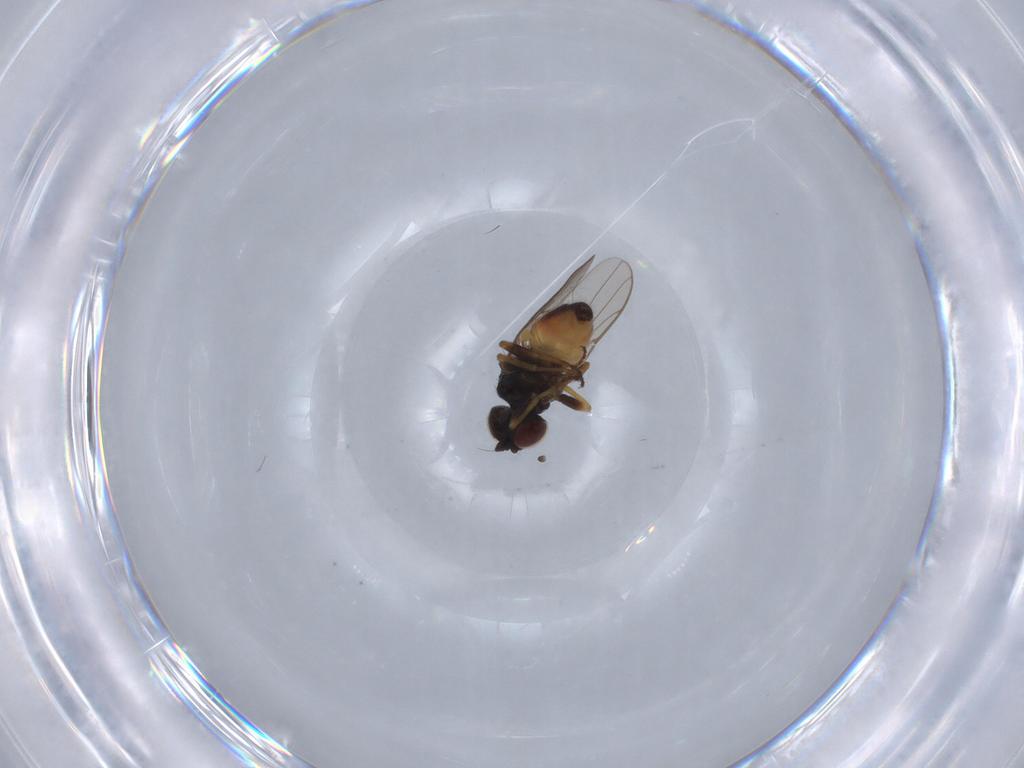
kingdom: Animalia
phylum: Arthropoda
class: Insecta
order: Diptera
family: Chloropidae
